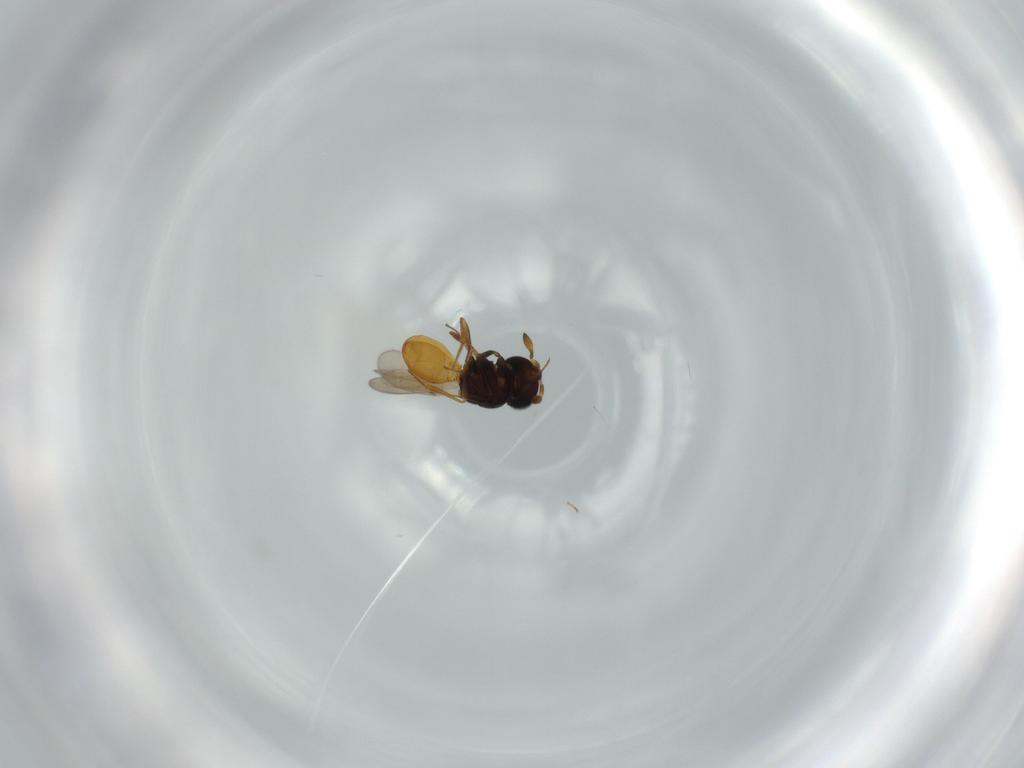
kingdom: Animalia
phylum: Arthropoda
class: Insecta
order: Hymenoptera
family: Scelionidae
